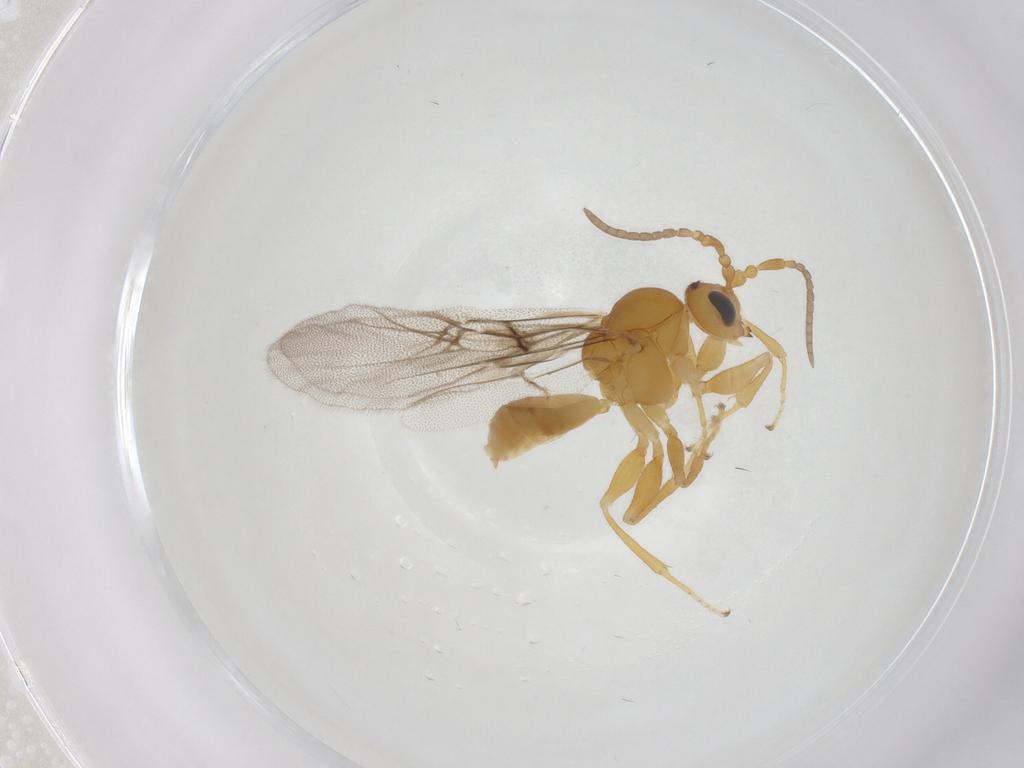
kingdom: Animalia
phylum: Arthropoda
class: Insecta
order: Hymenoptera
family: Cynipidae
